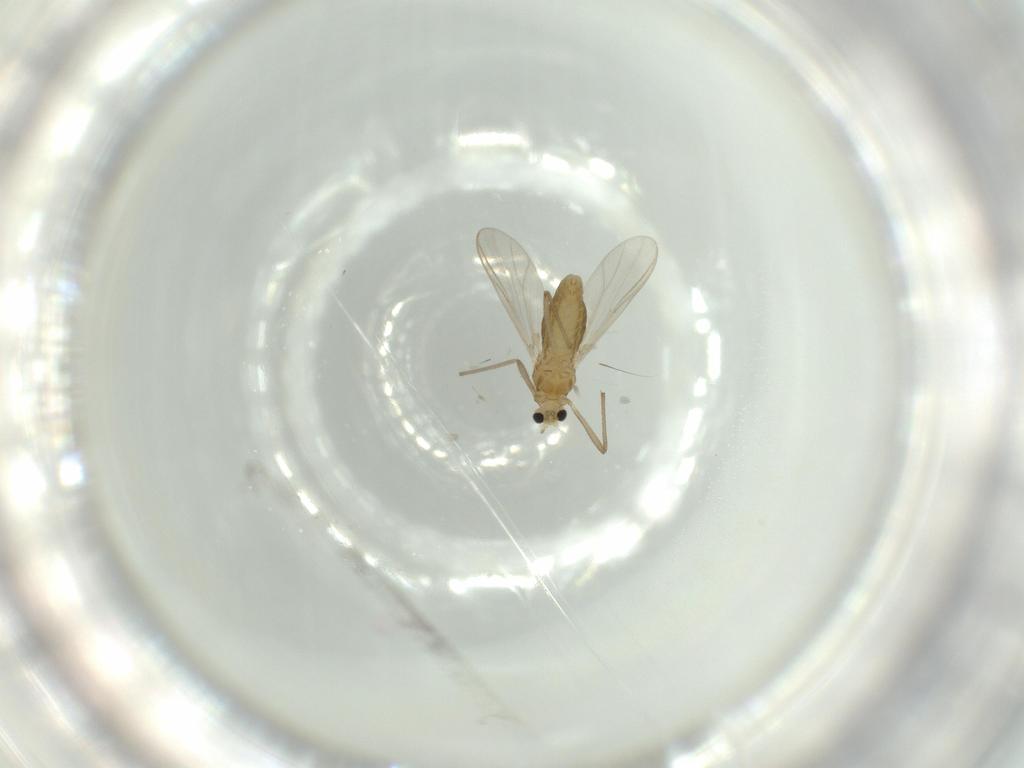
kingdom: Animalia
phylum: Arthropoda
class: Insecta
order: Diptera
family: Chironomidae
